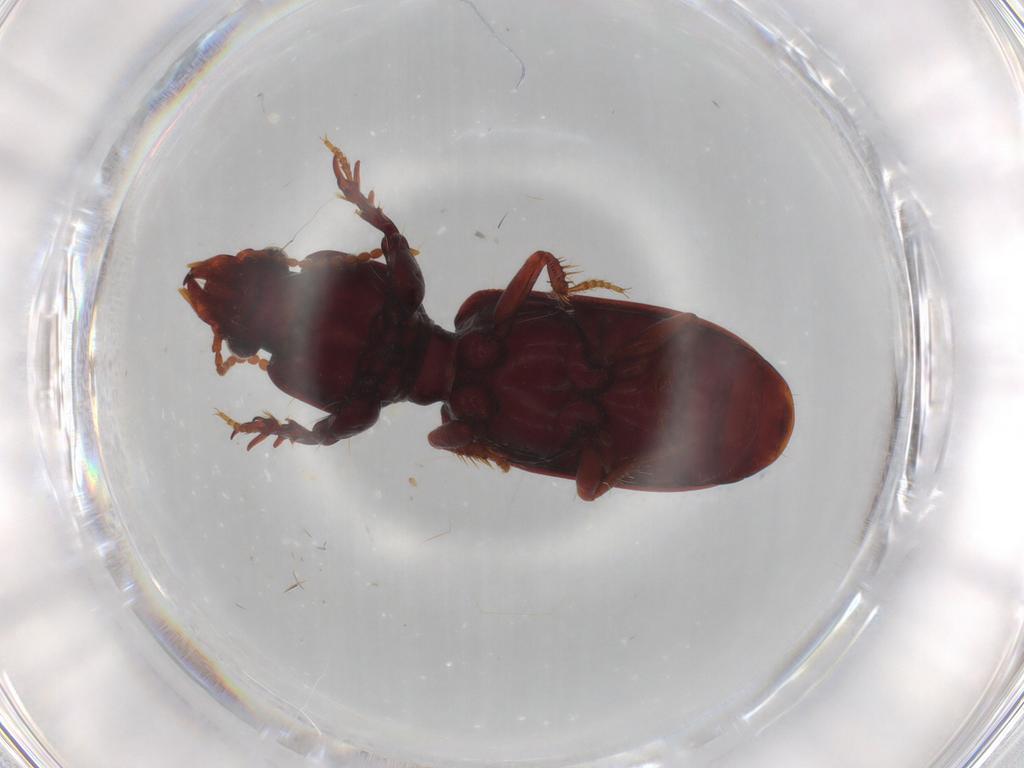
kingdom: Animalia
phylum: Arthropoda
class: Insecta
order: Coleoptera
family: Carabidae
